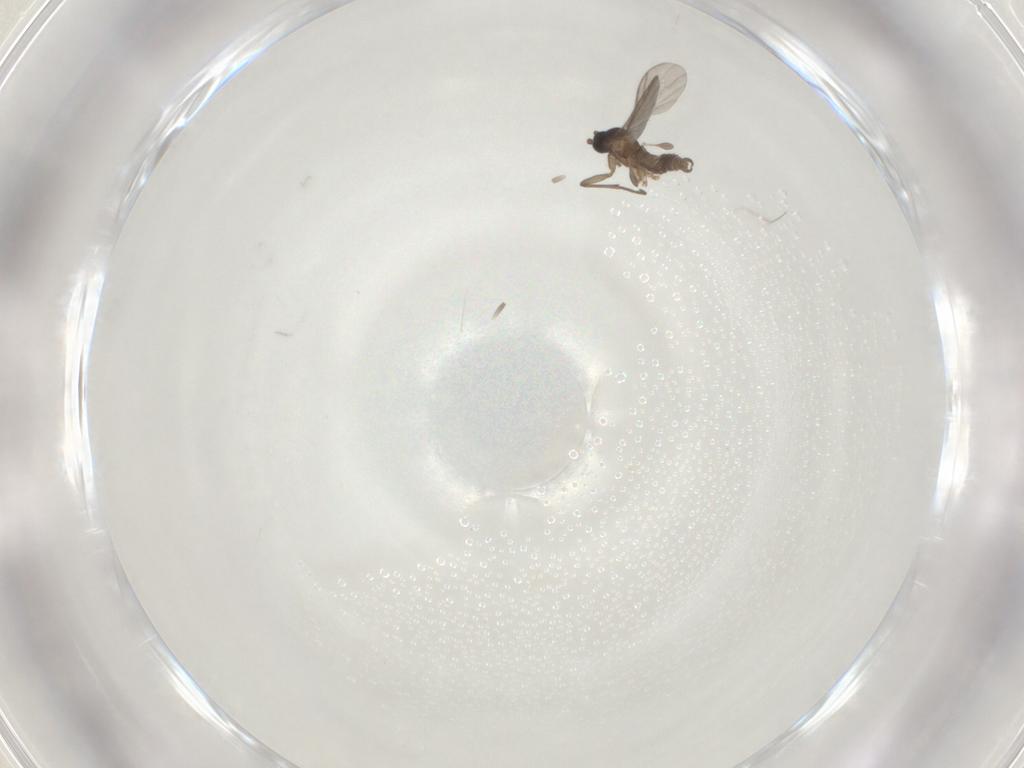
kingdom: Animalia
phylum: Arthropoda
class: Insecta
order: Diptera
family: Sciaridae
